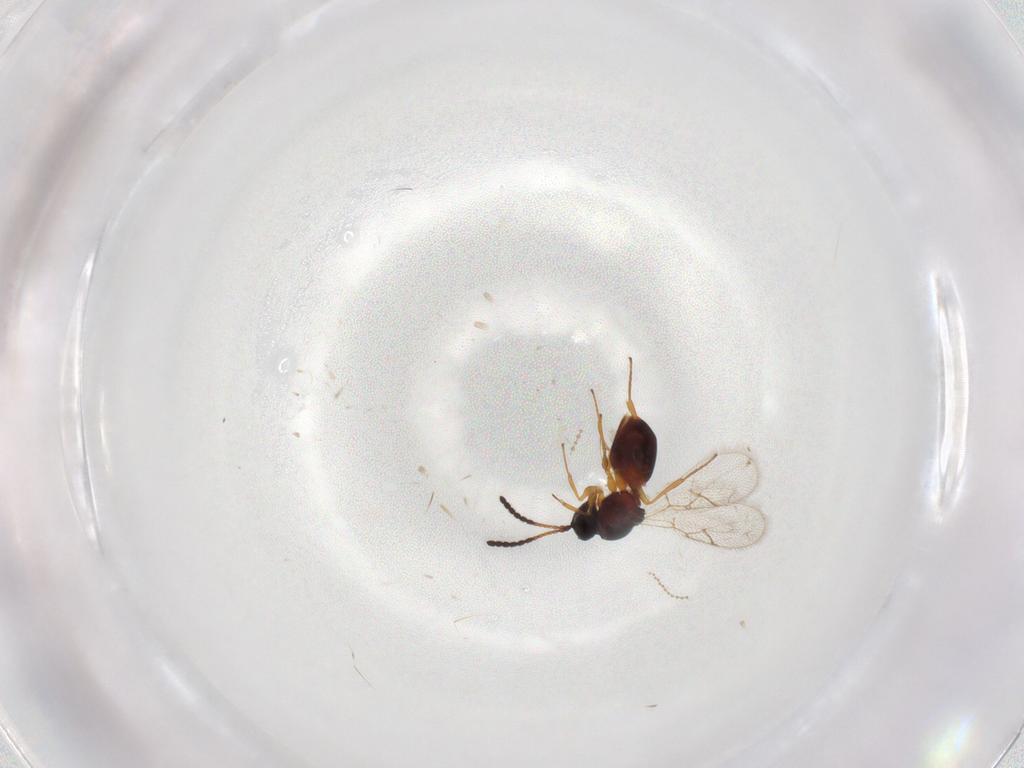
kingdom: Animalia
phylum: Arthropoda
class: Insecta
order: Hymenoptera
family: Figitidae
